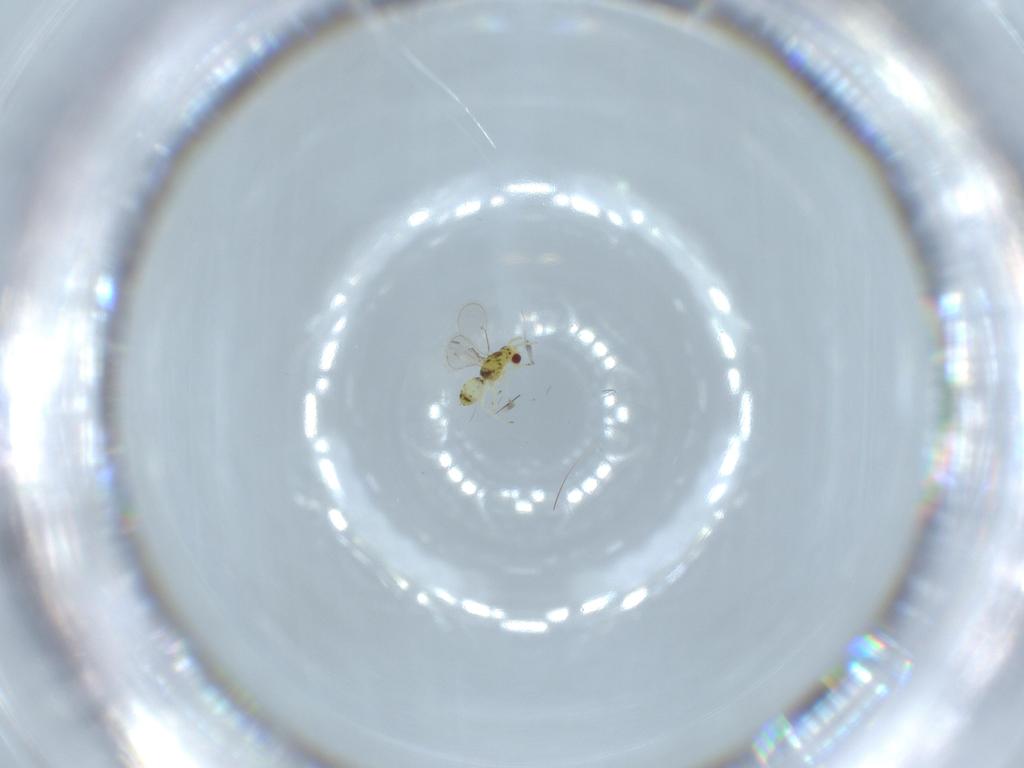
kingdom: Animalia
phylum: Arthropoda
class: Insecta
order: Hymenoptera
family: Eulophidae
